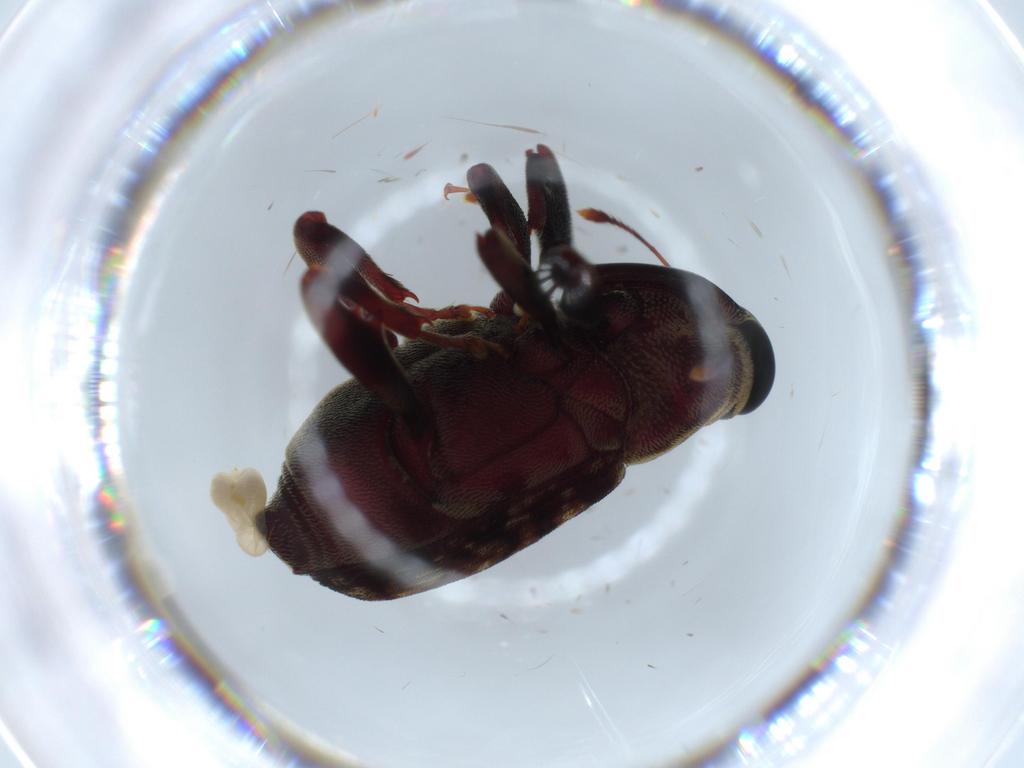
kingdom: Animalia
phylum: Arthropoda
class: Insecta
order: Coleoptera
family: Curculionidae
